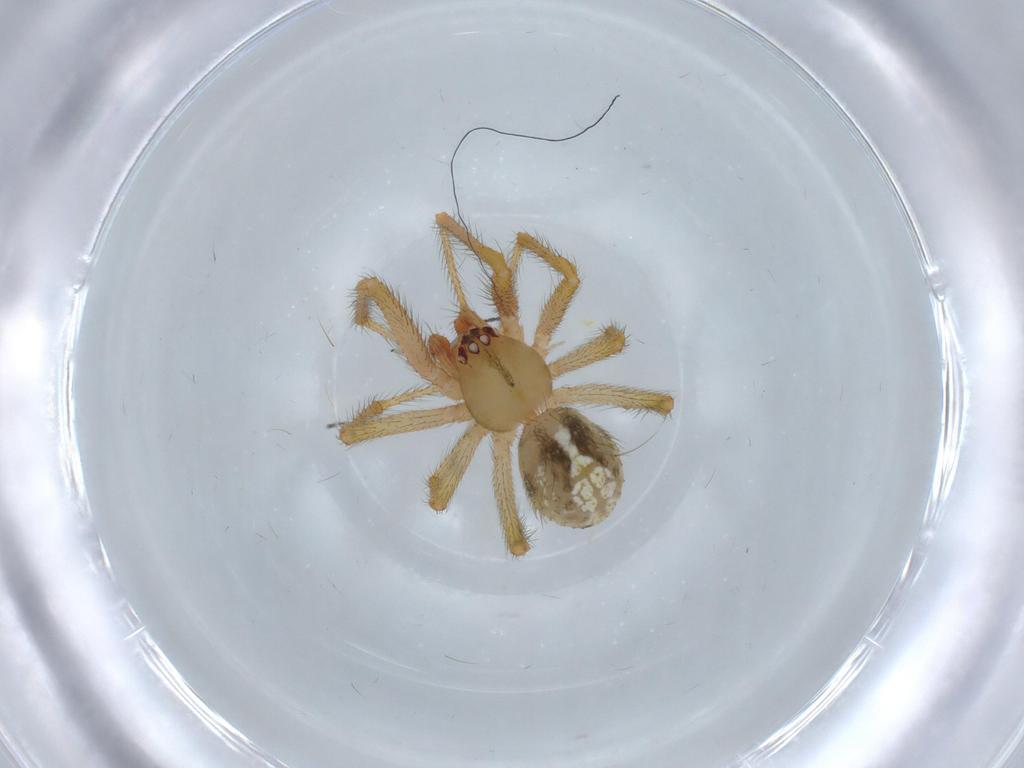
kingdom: Animalia
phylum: Arthropoda
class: Arachnida
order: Araneae
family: Theridiidae
